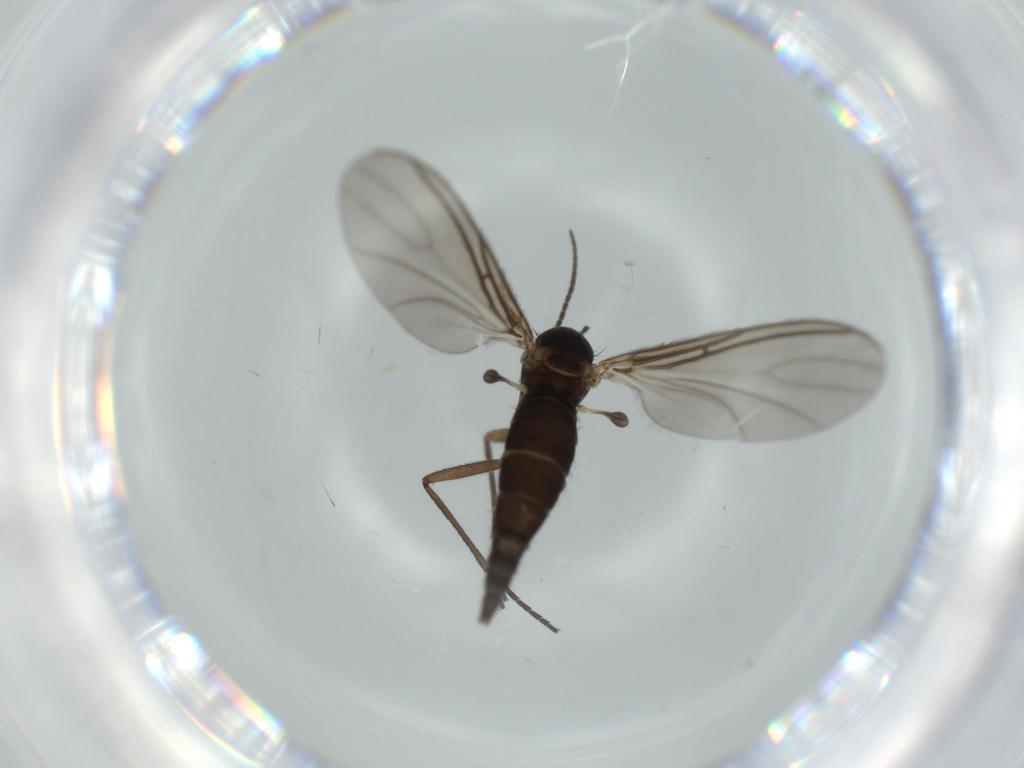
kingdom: Animalia
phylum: Arthropoda
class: Insecta
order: Diptera
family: Sciaridae
